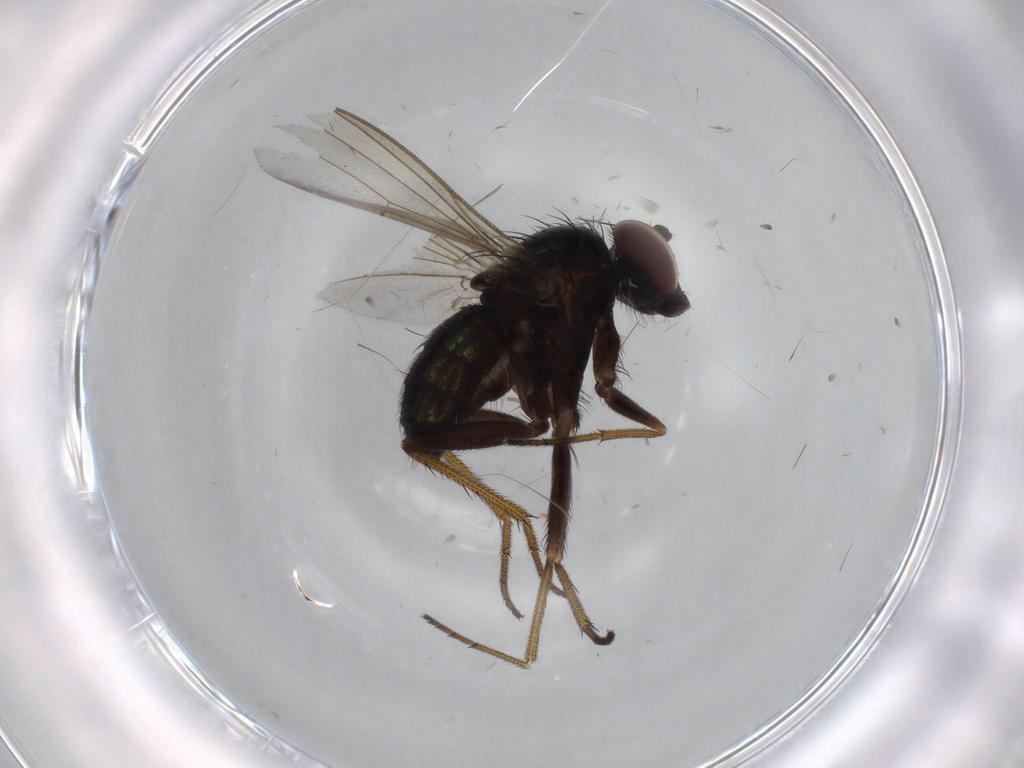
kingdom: Animalia
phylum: Arthropoda
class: Insecta
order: Diptera
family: Dolichopodidae
